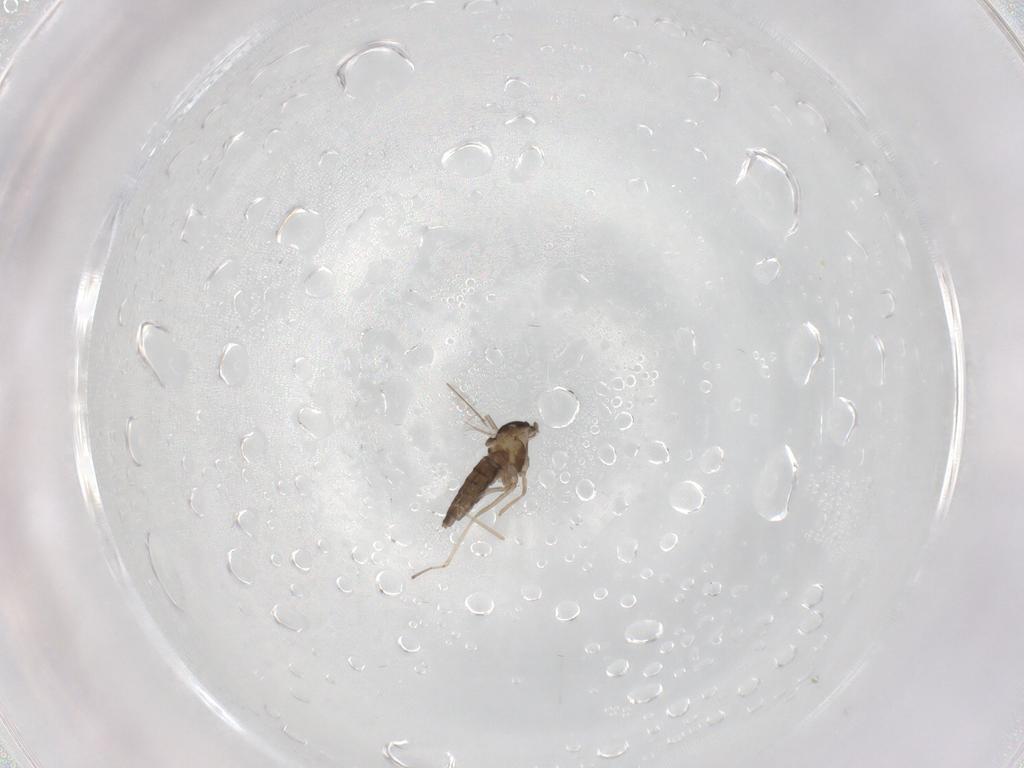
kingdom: Animalia
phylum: Arthropoda
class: Insecta
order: Diptera
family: Cecidomyiidae
